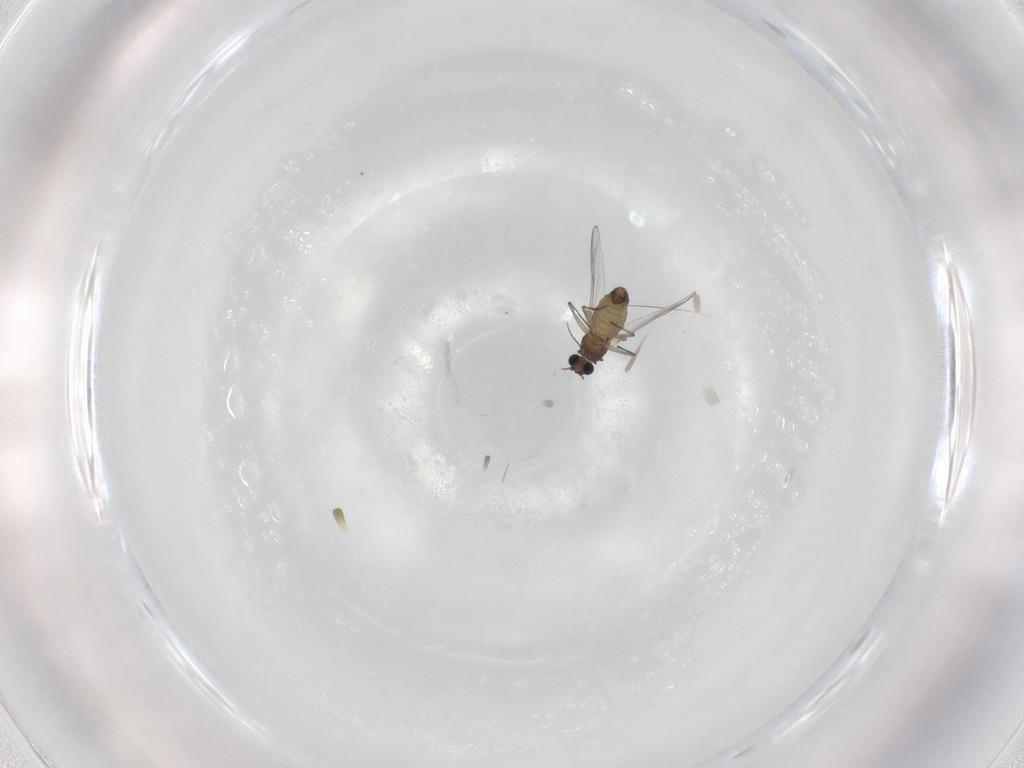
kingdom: Animalia
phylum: Arthropoda
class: Insecta
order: Diptera
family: Chironomidae
